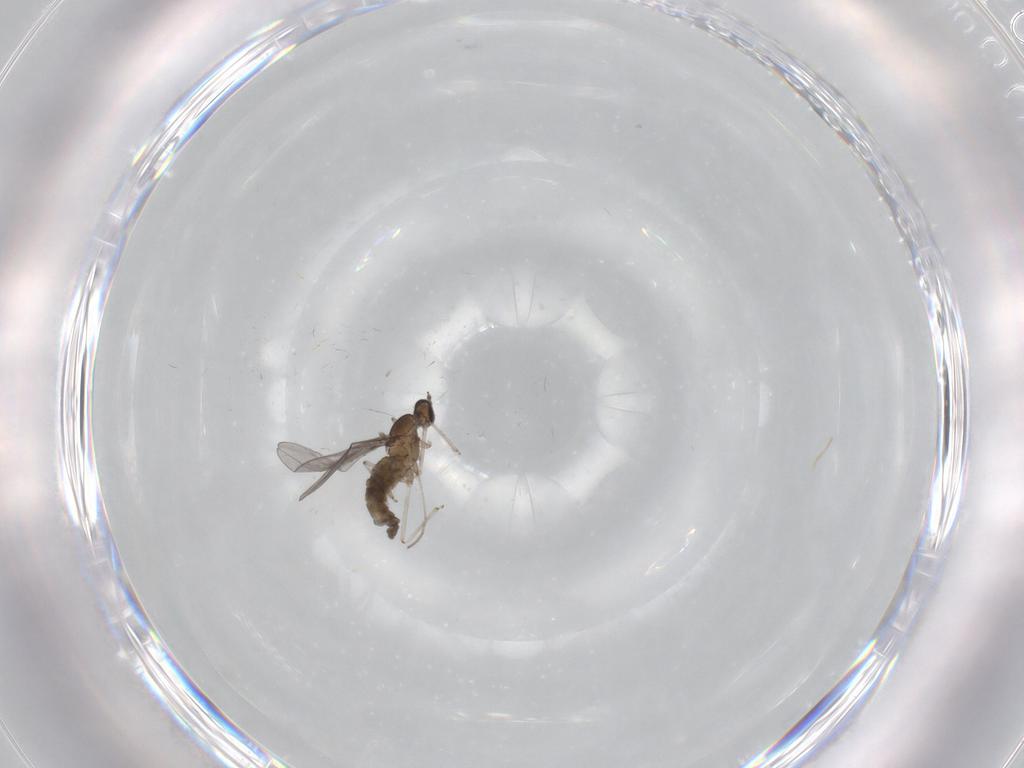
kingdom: Animalia
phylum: Arthropoda
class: Insecta
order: Diptera
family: Cecidomyiidae
